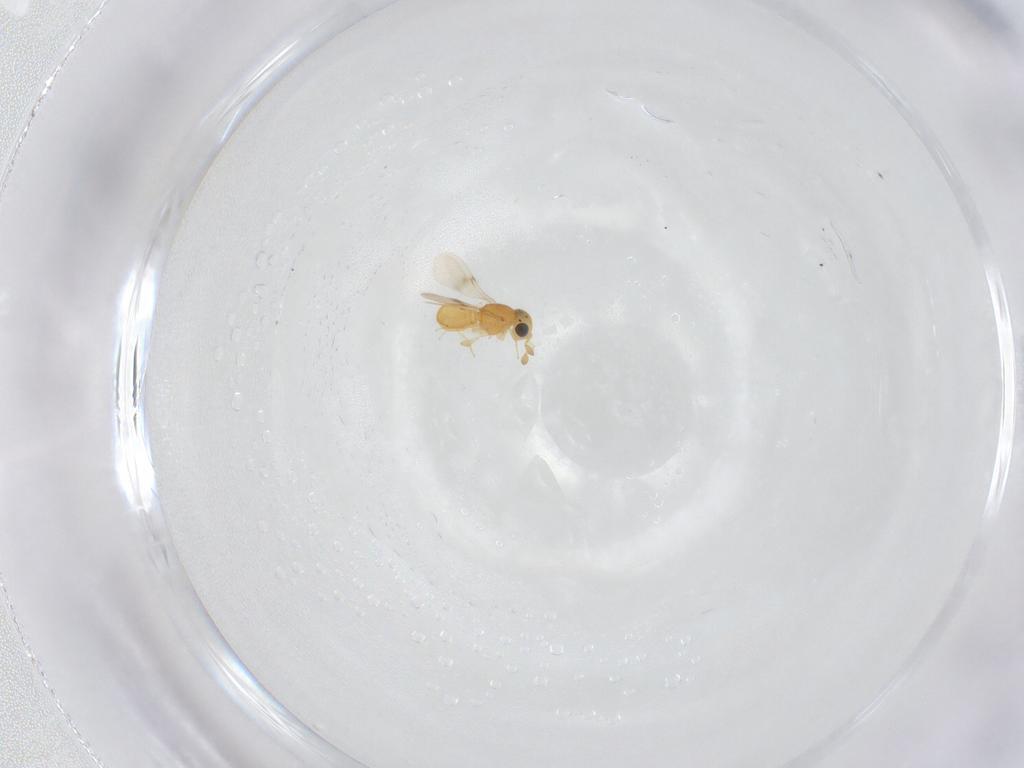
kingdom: Animalia
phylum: Arthropoda
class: Insecta
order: Hymenoptera
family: Scelionidae
